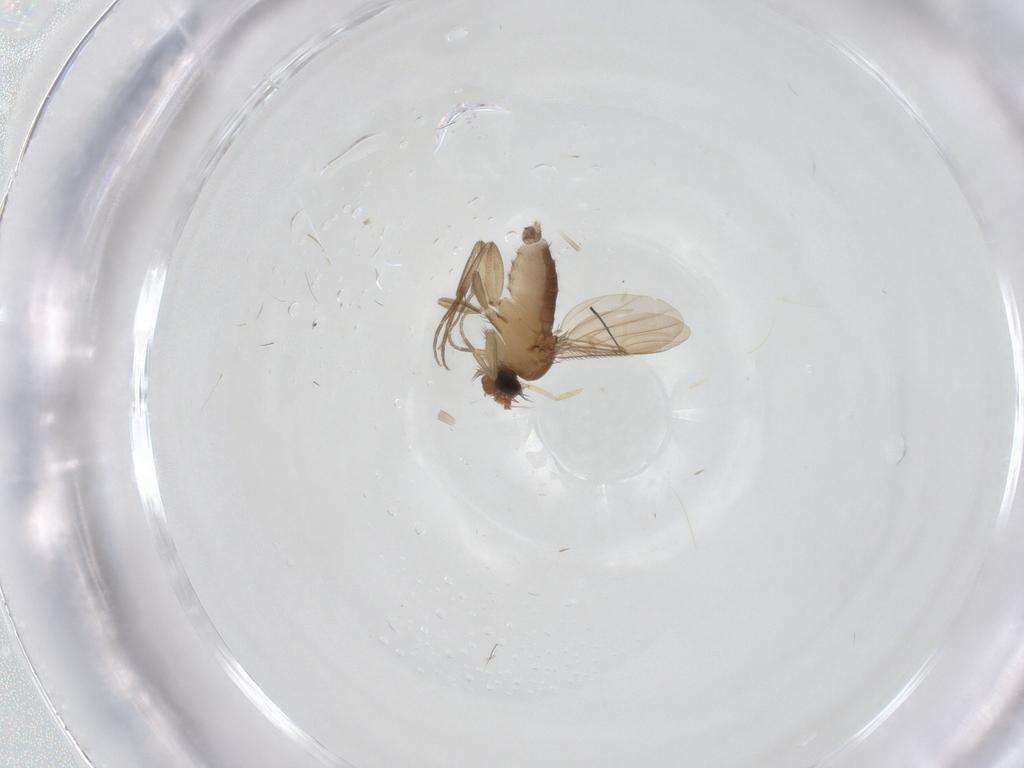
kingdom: Animalia
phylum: Arthropoda
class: Insecta
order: Diptera
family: Phoridae
